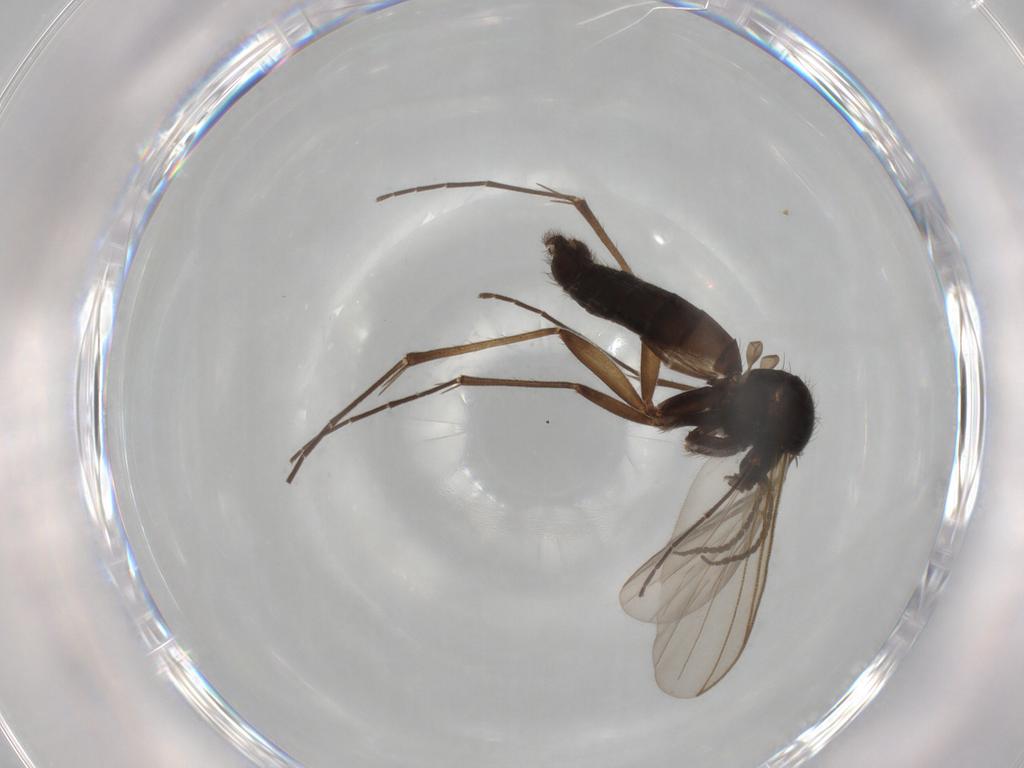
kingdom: Animalia
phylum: Arthropoda
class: Insecta
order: Diptera
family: Mycetophilidae
